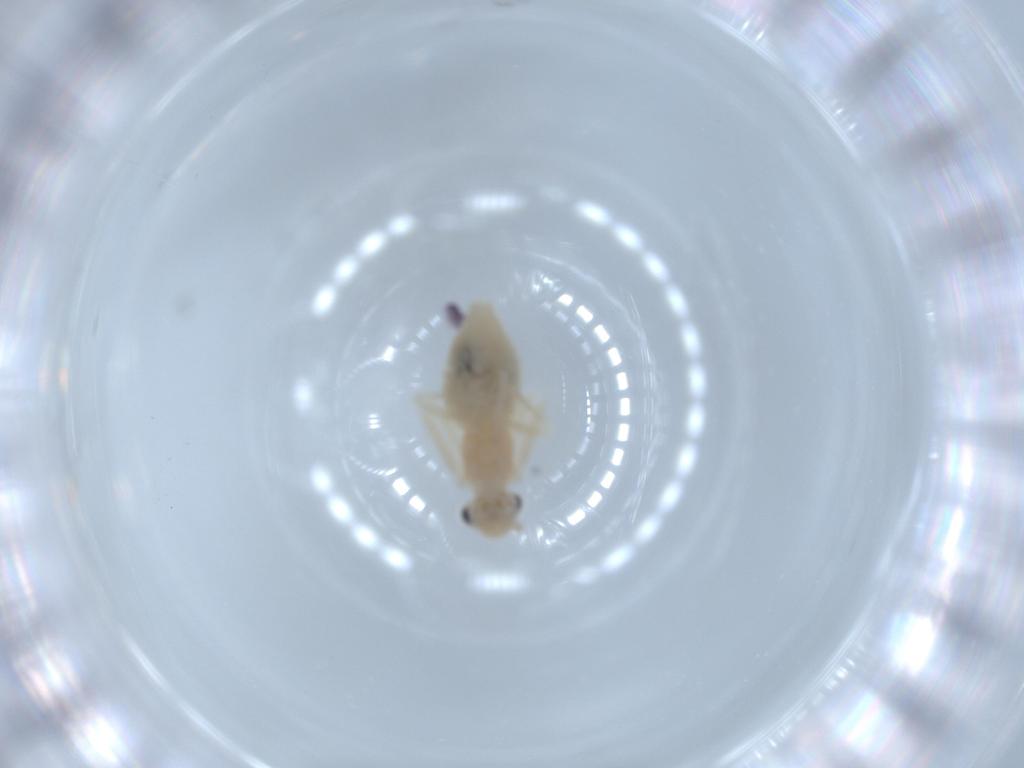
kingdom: Animalia
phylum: Arthropoda
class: Insecta
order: Psocodea
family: Caeciliusidae
